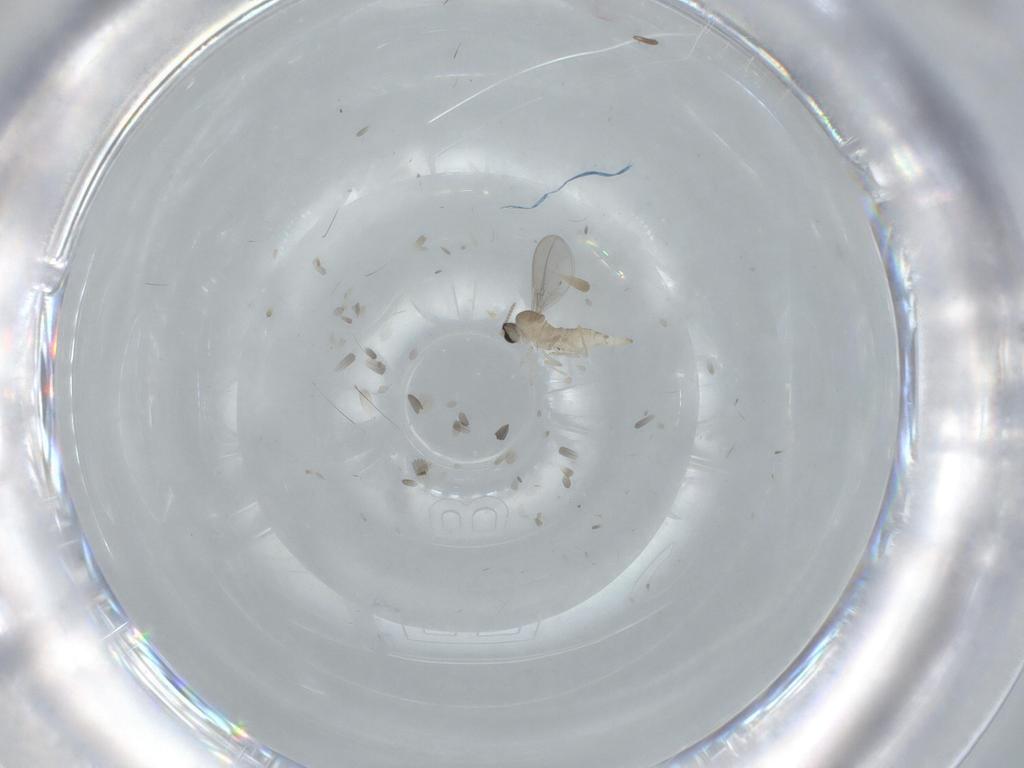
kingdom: Animalia
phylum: Arthropoda
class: Insecta
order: Diptera
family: Cecidomyiidae
